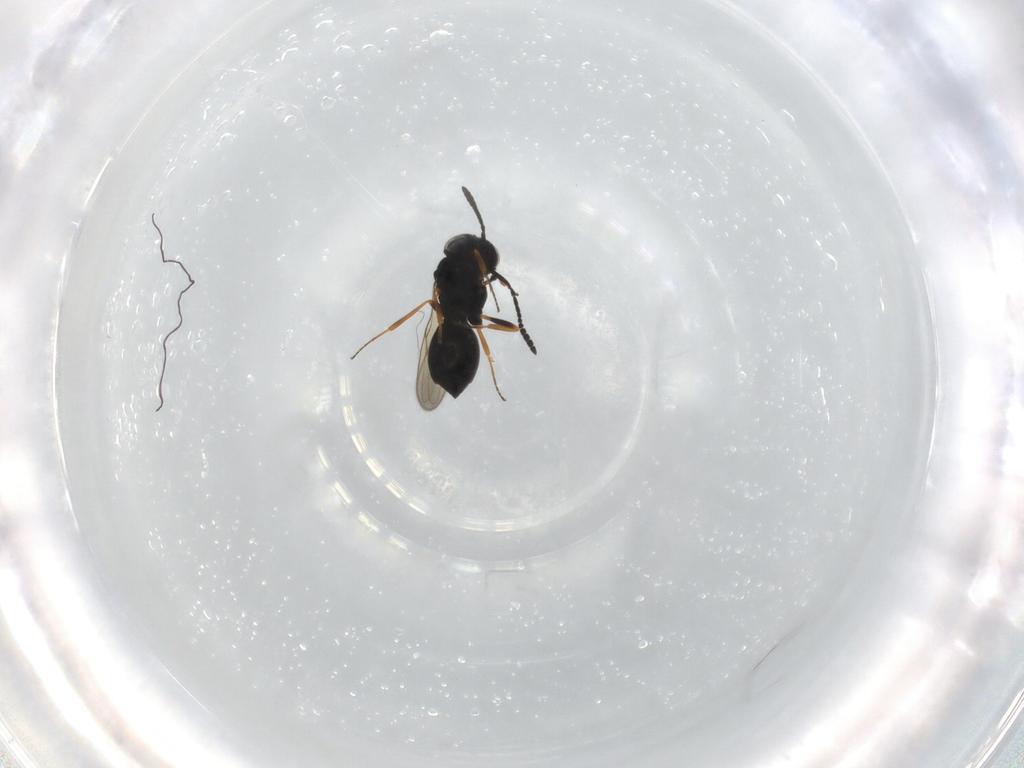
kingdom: Animalia
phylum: Arthropoda
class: Insecta
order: Hymenoptera
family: Scelionidae
